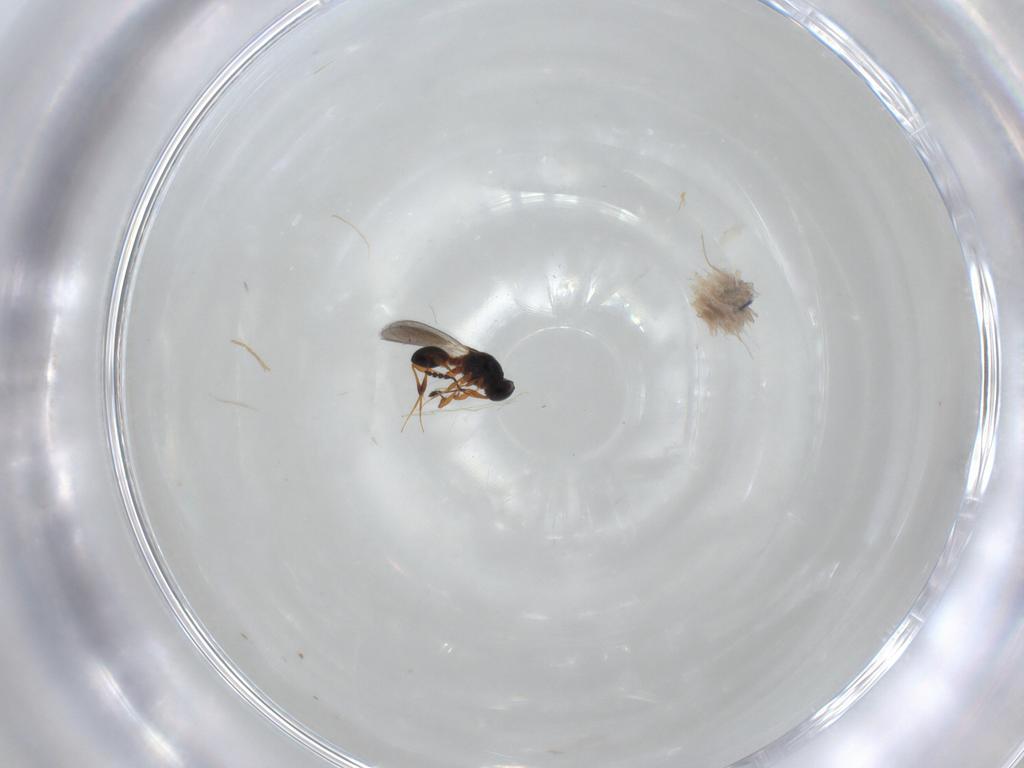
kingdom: Animalia
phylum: Arthropoda
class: Insecta
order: Hymenoptera
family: Platygastridae
